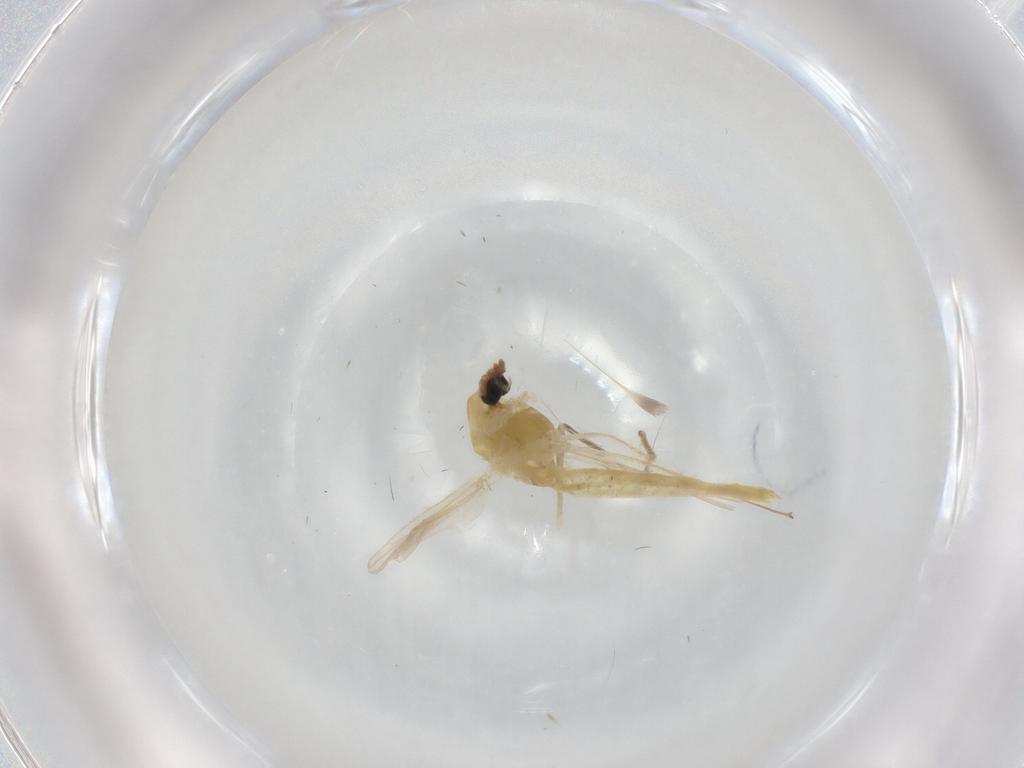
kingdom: Animalia
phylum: Arthropoda
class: Insecta
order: Diptera
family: Chironomidae
